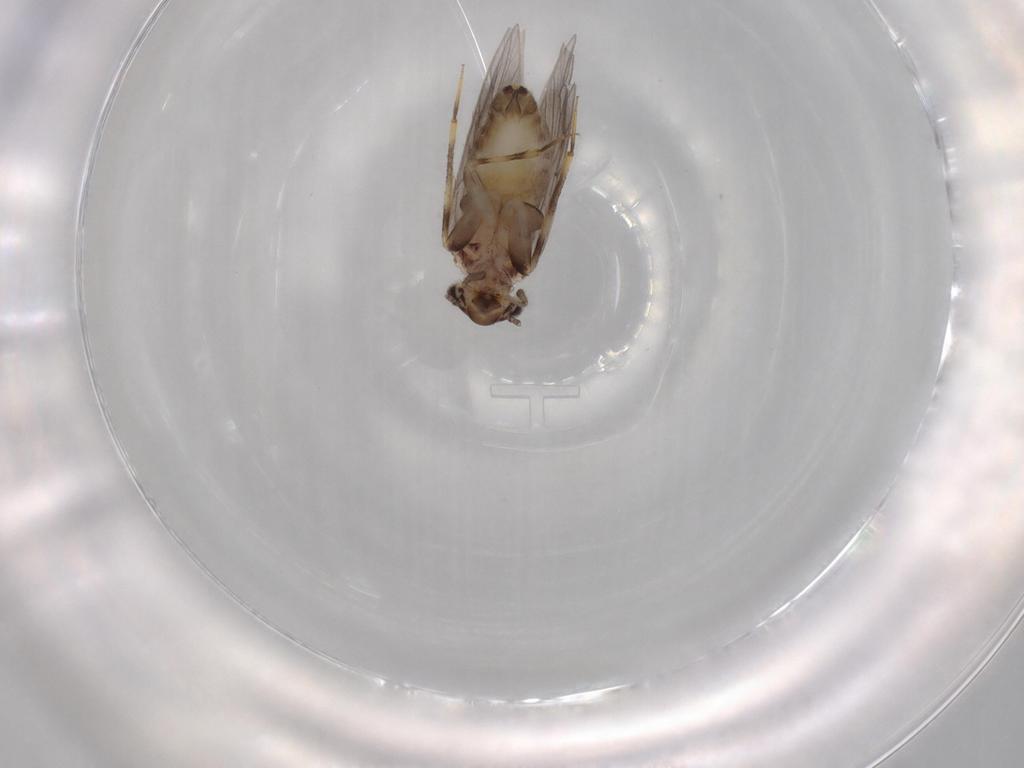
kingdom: Animalia
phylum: Arthropoda
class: Insecta
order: Psocodea
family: Lepidopsocidae
